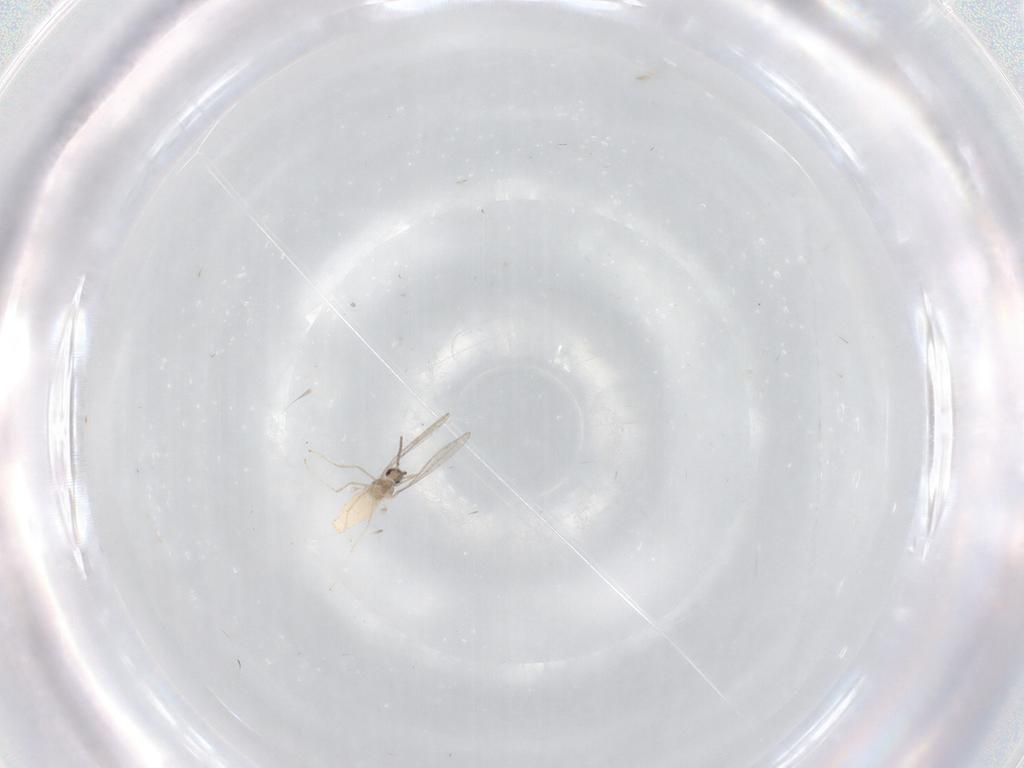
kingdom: Animalia
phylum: Arthropoda
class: Insecta
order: Diptera
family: Cecidomyiidae
